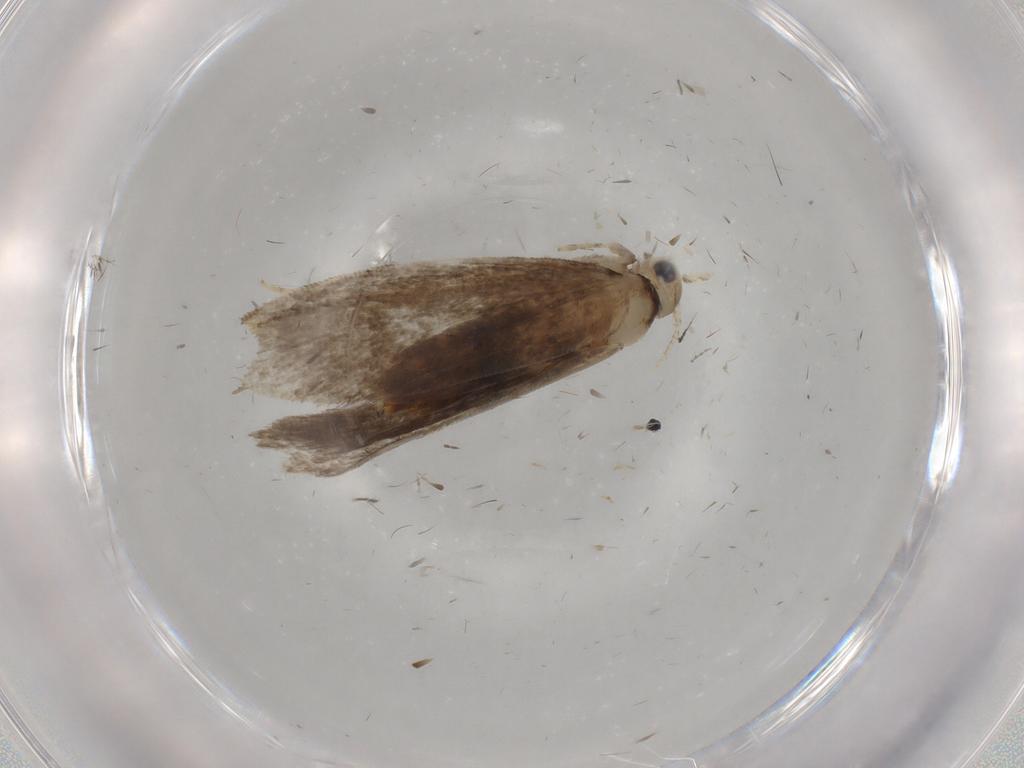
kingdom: Animalia
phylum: Arthropoda
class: Insecta
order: Lepidoptera
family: Tineidae
